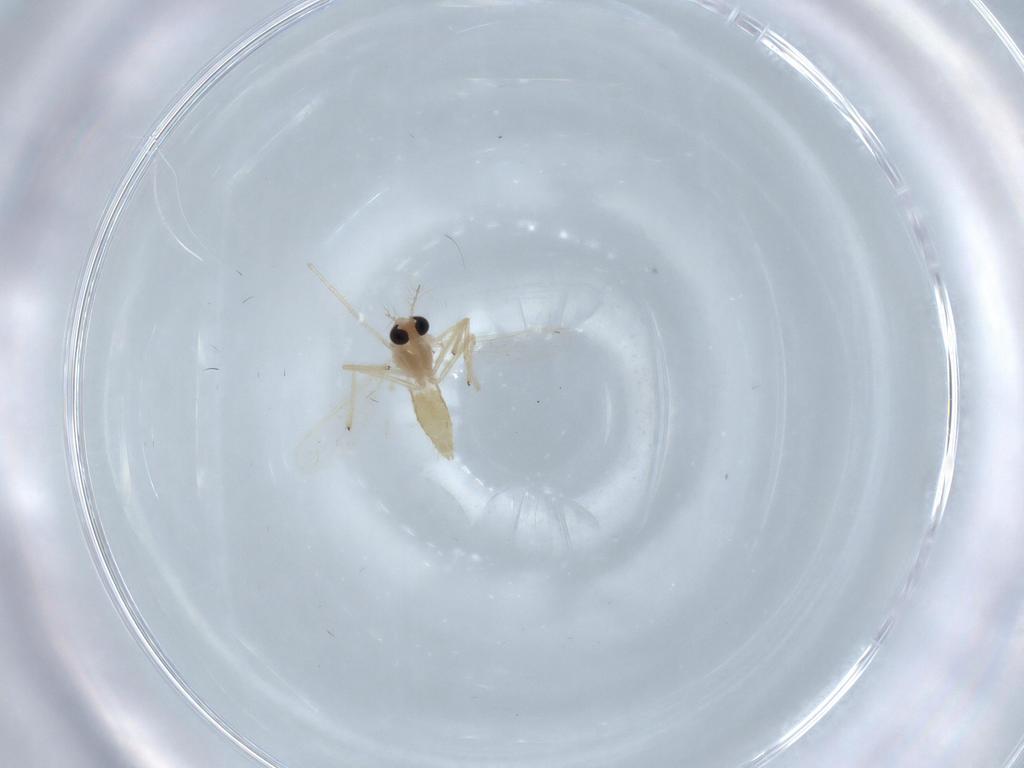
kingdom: Animalia
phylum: Arthropoda
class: Insecta
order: Diptera
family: Chironomidae
